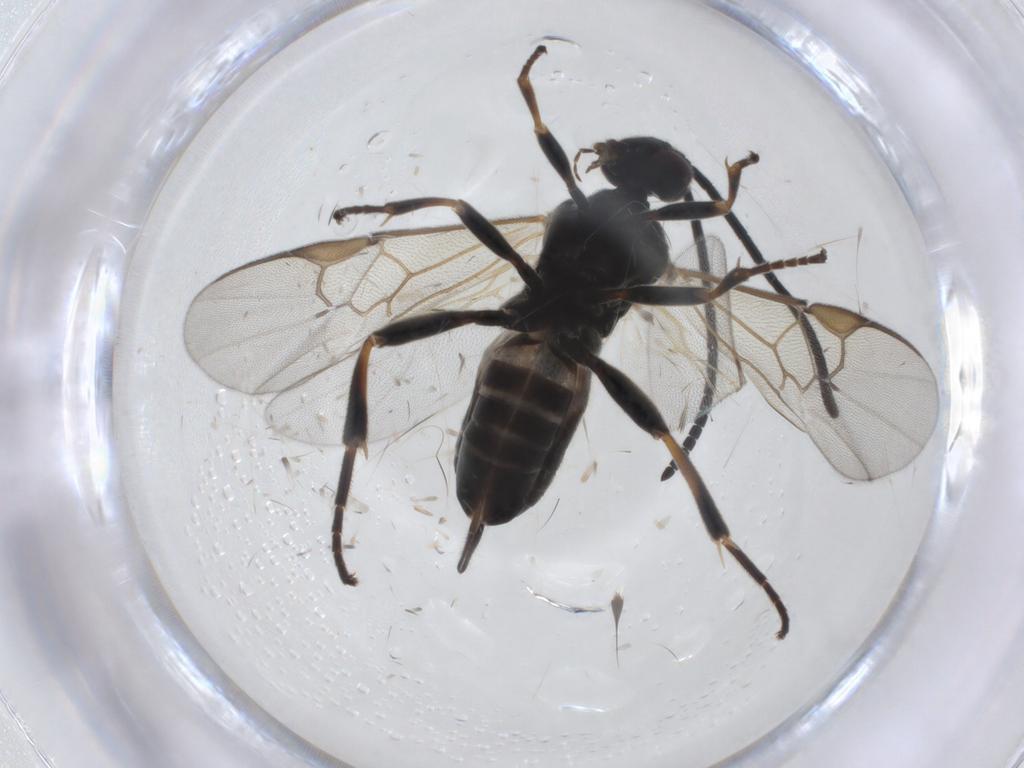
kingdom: Animalia
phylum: Arthropoda
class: Insecta
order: Hymenoptera
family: Braconidae
